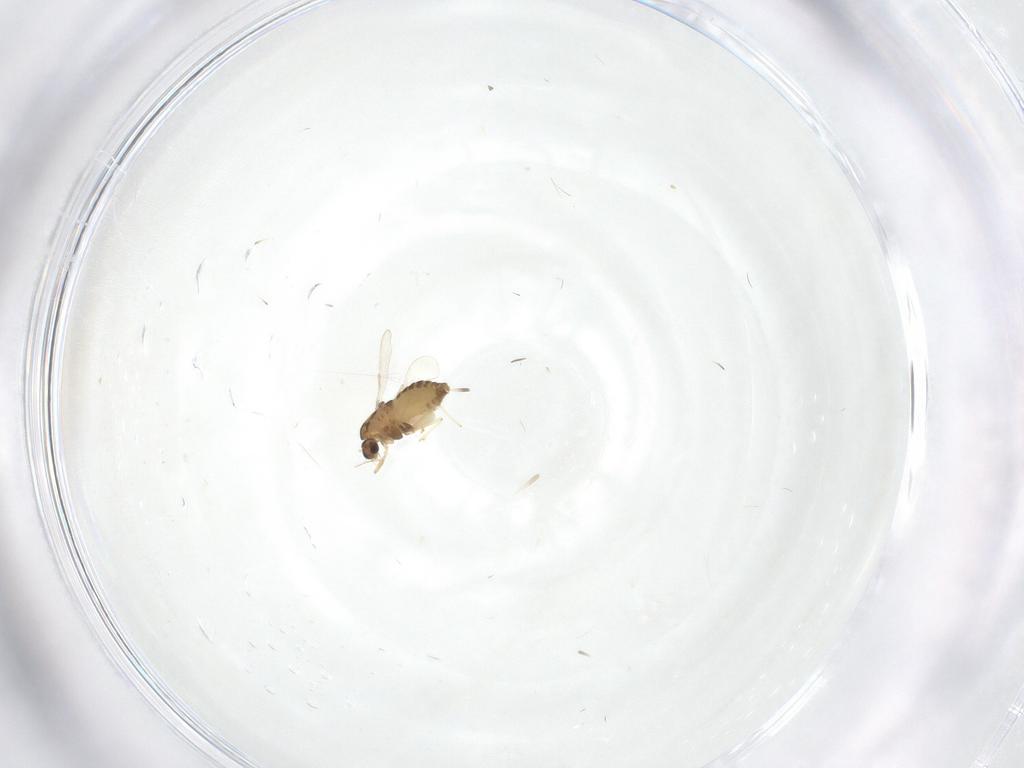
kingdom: Animalia
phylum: Arthropoda
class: Insecta
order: Diptera
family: Chironomidae
